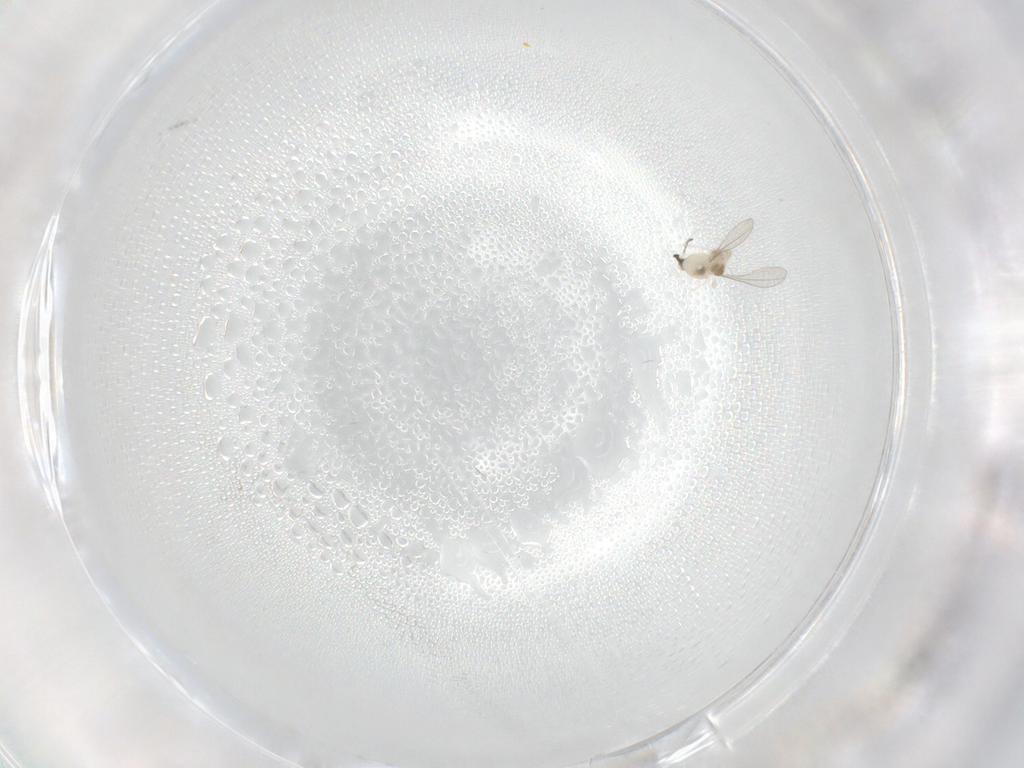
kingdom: Animalia
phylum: Arthropoda
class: Insecta
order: Diptera
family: Cecidomyiidae
